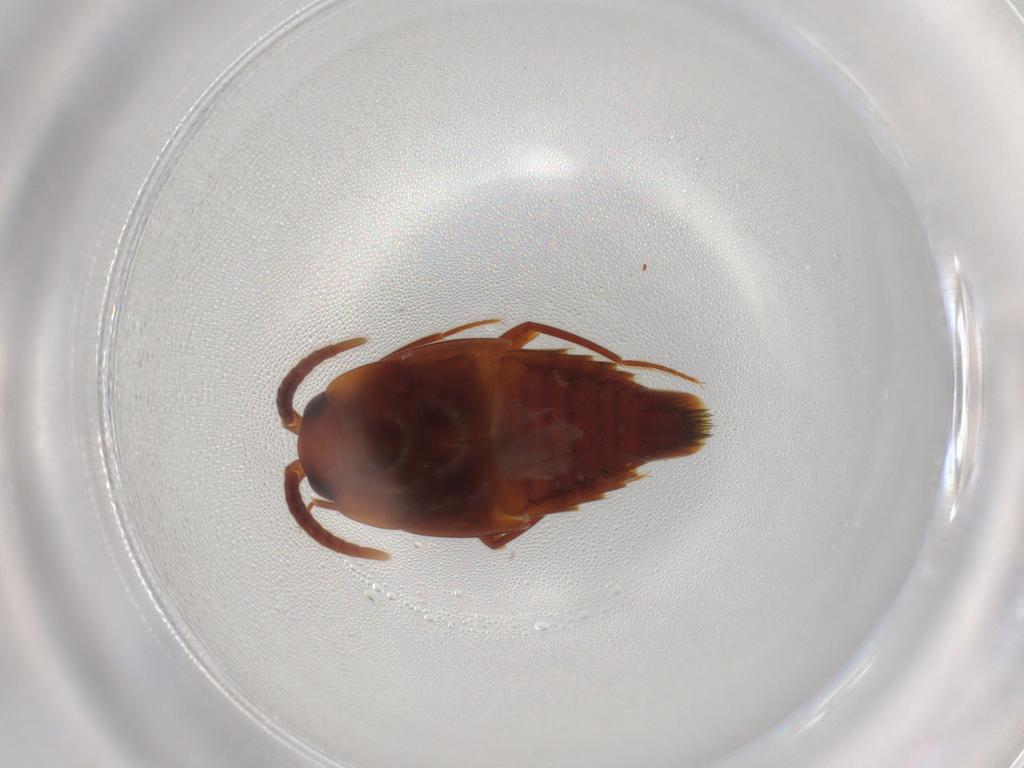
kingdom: Animalia
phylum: Arthropoda
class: Insecta
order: Coleoptera
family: Staphylinidae
